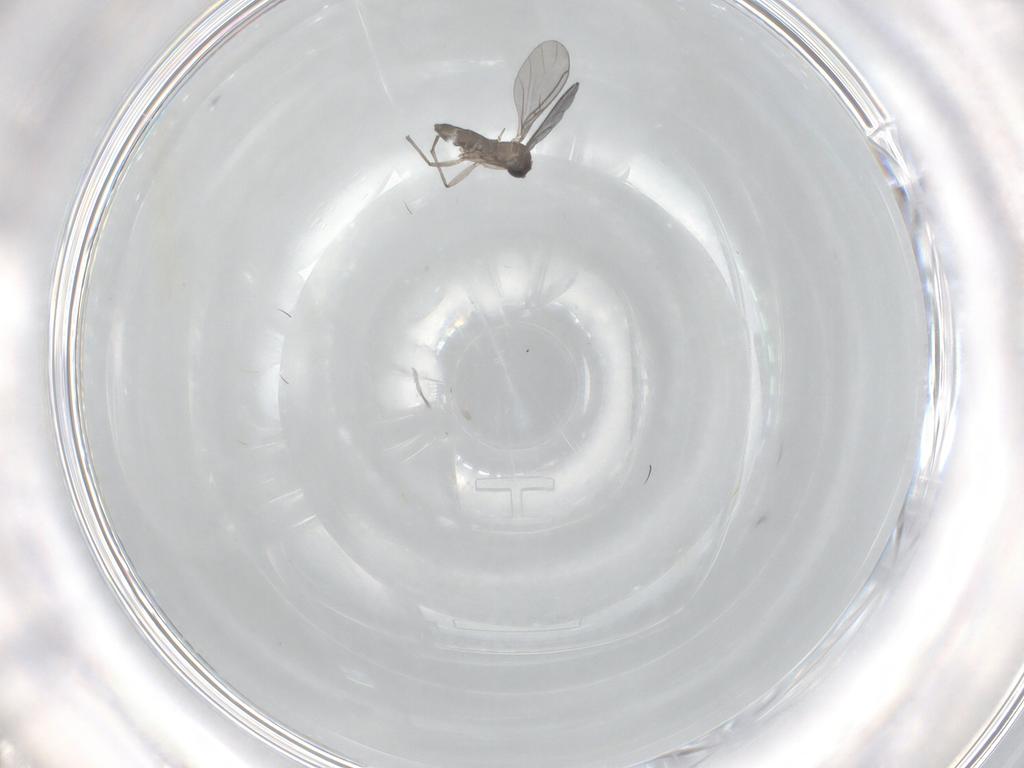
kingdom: Animalia
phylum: Arthropoda
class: Insecta
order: Diptera
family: Sciaridae
